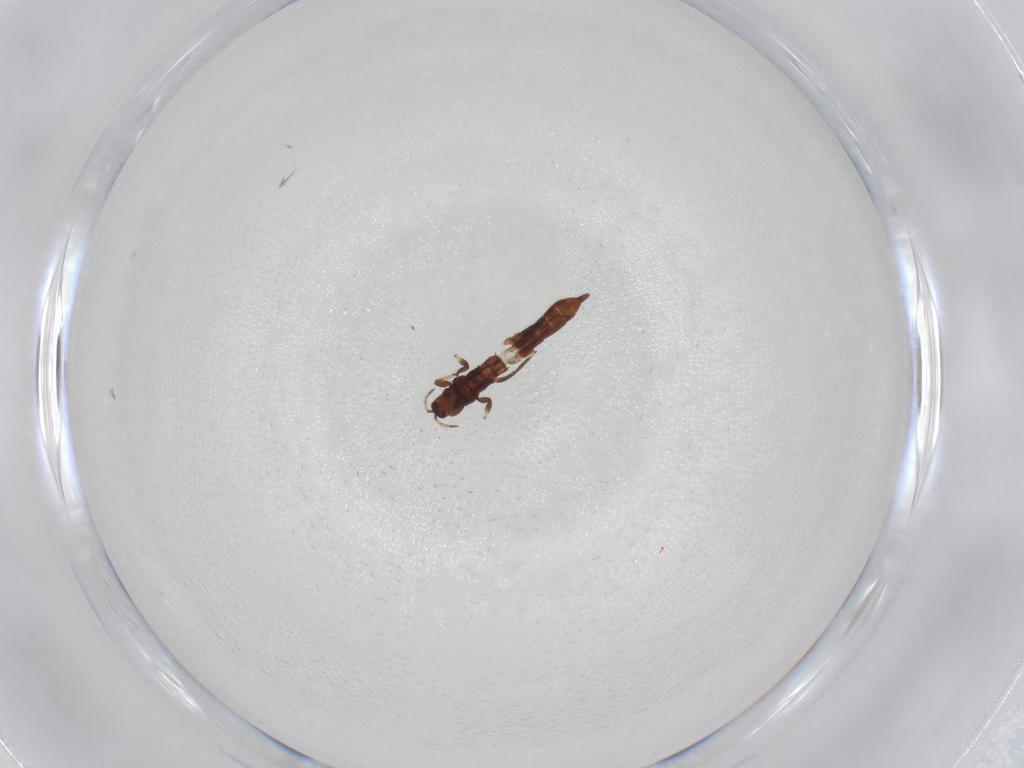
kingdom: Animalia
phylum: Arthropoda
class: Insecta
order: Thysanoptera
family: Phlaeothripidae
